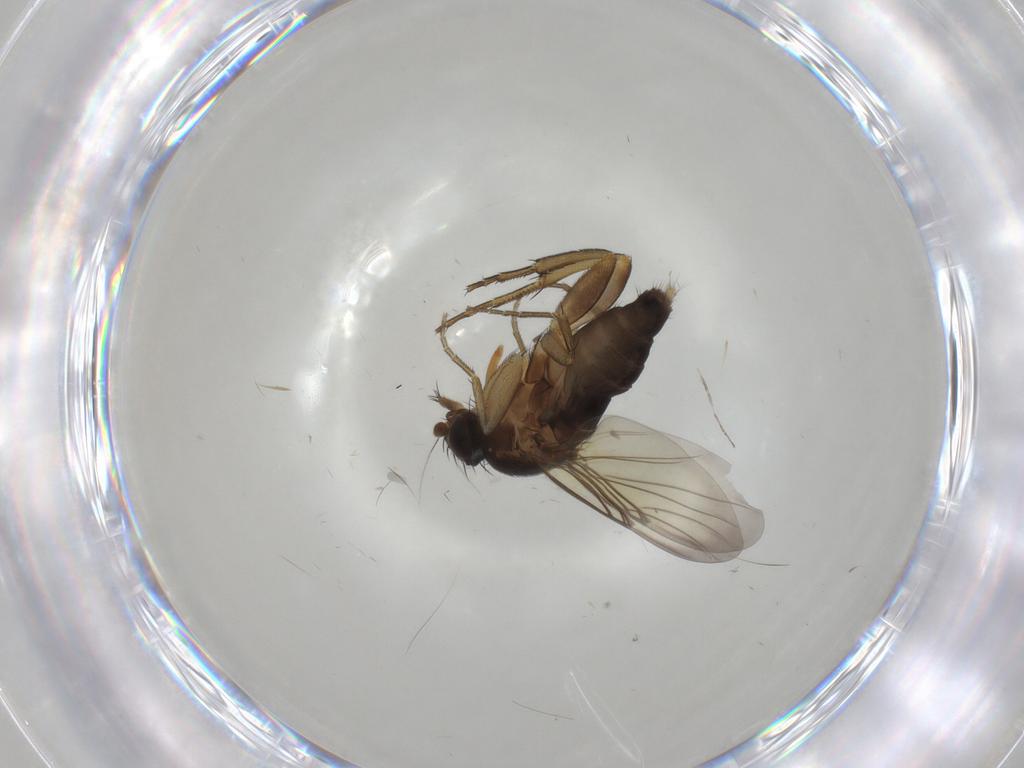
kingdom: Animalia
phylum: Arthropoda
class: Insecta
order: Diptera
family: Phoridae
